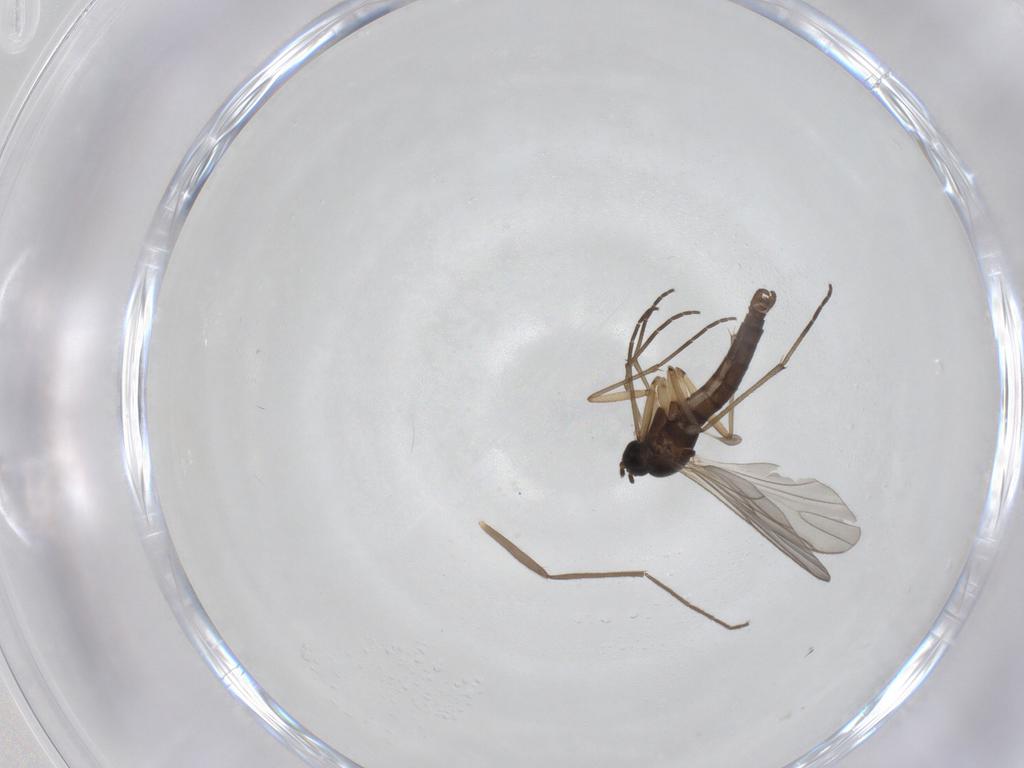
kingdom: Animalia
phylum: Arthropoda
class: Insecta
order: Diptera
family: Sciaridae
